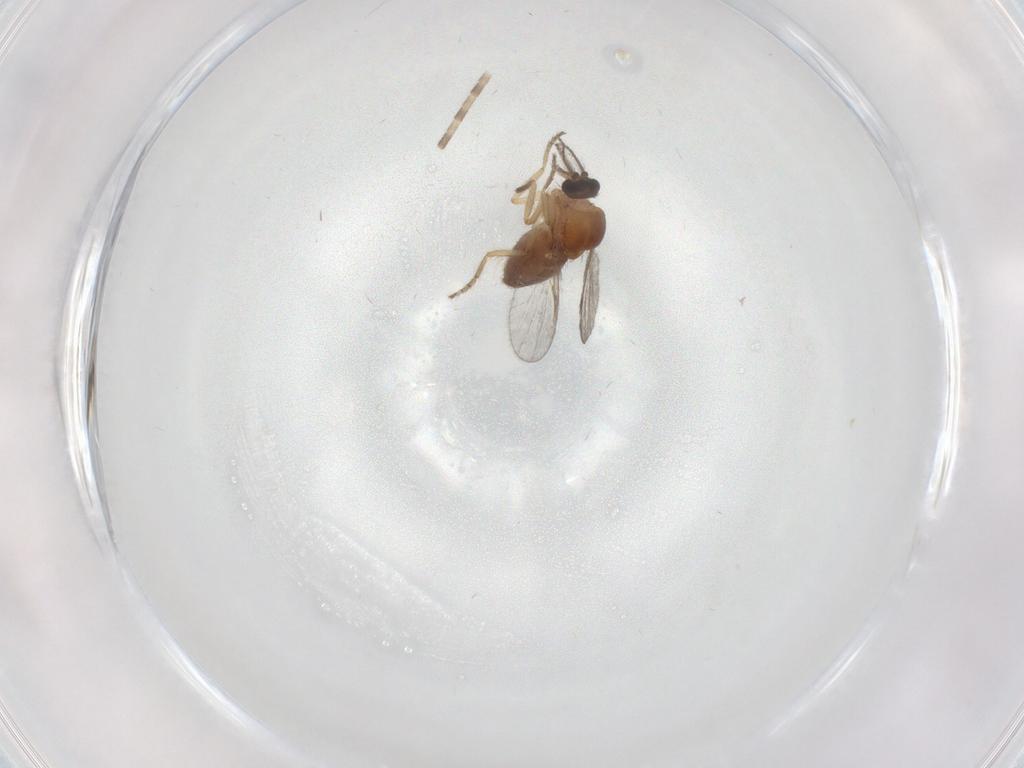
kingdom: Animalia
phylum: Arthropoda
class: Insecta
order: Diptera
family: Ceratopogonidae
